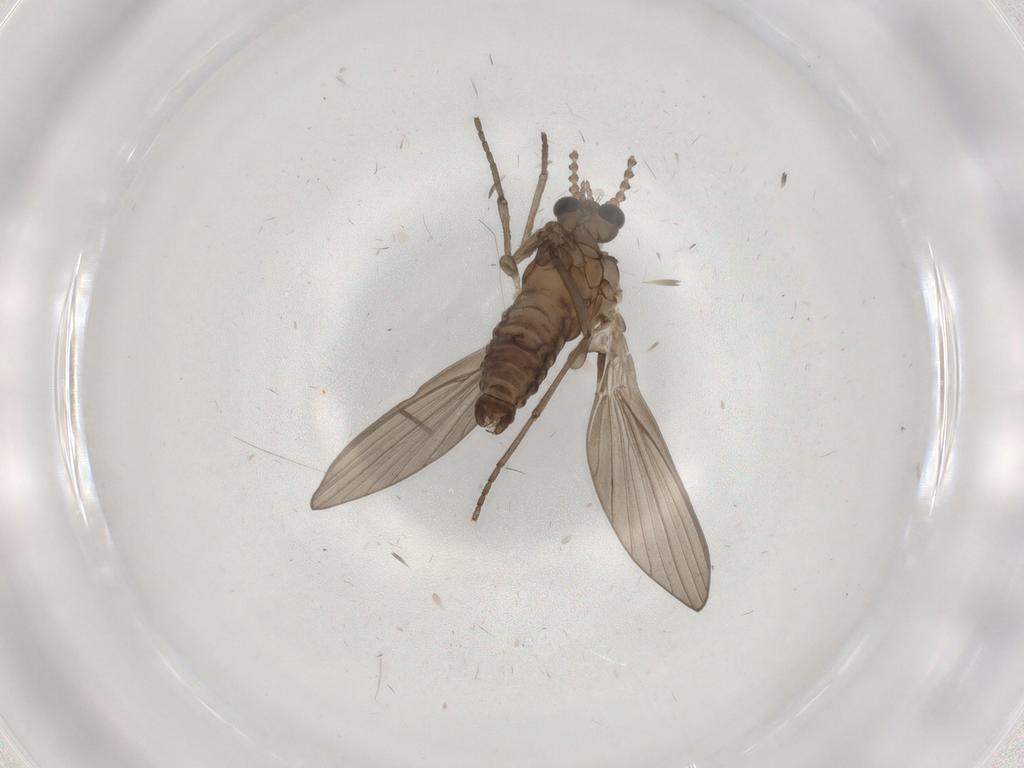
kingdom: Animalia
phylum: Arthropoda
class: Insecta
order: Diptera
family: Psychodidae
